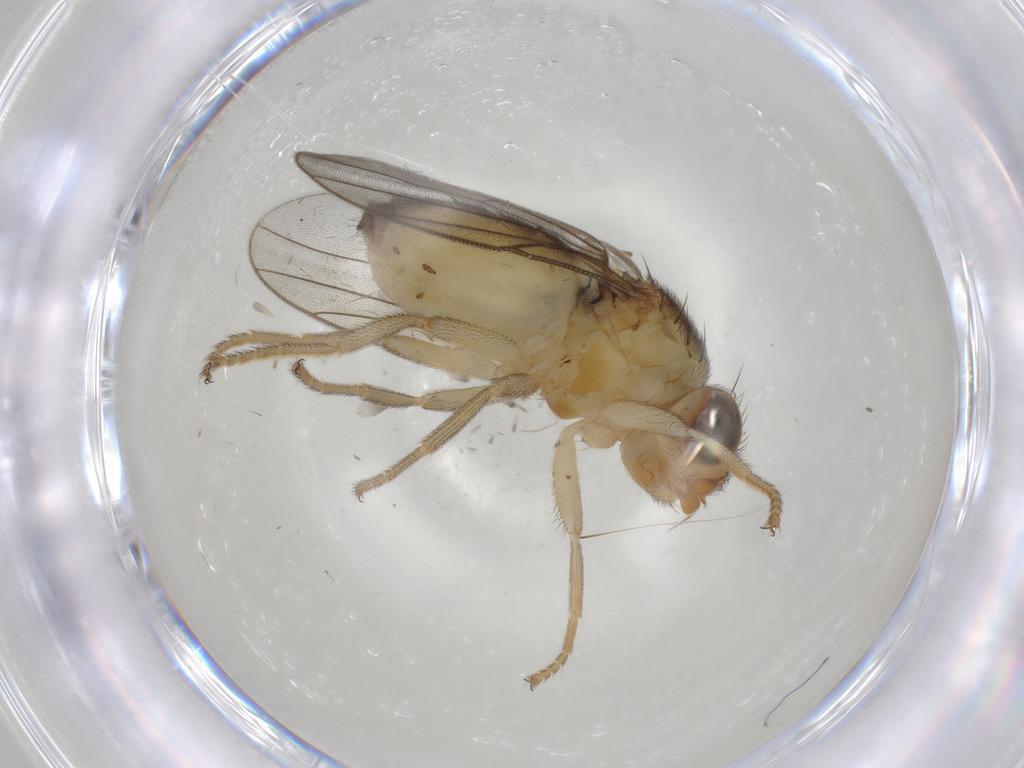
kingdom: Animalia
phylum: Arthropoda
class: Insecta
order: Diptera
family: Chloropidae
